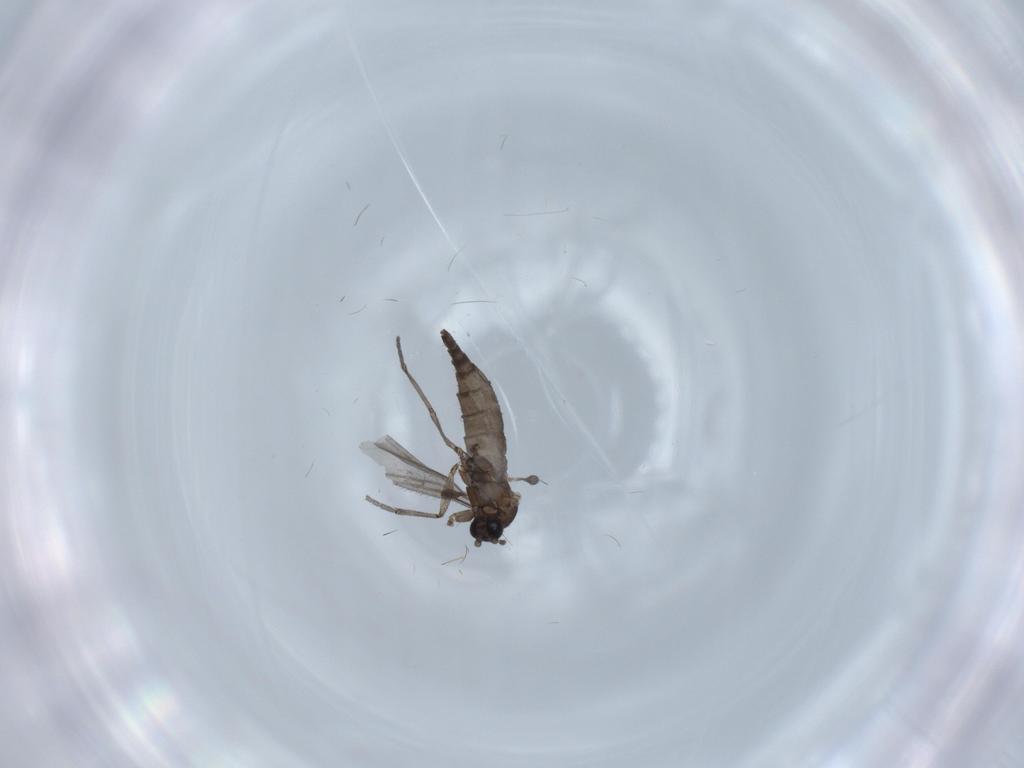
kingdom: Animalia
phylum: Arthropoda
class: Insecta
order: Diptera
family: Sciaridae
